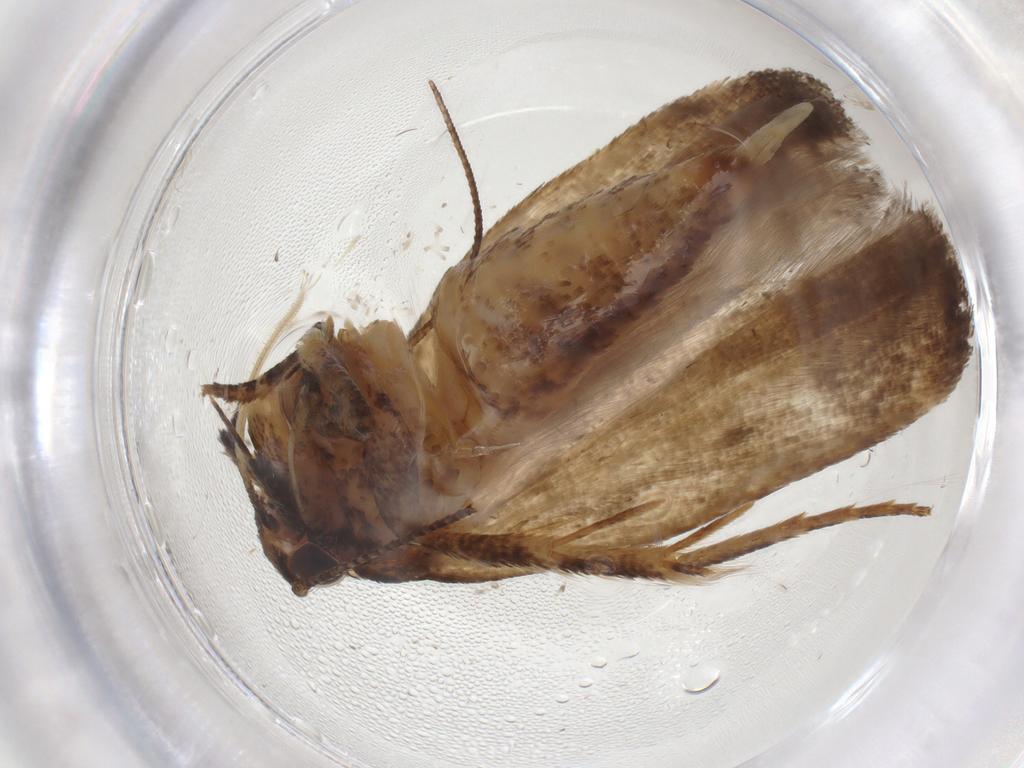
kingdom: Animalia
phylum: Arthropoda
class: Insecta
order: Lepidoptera
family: Gelechiidae
